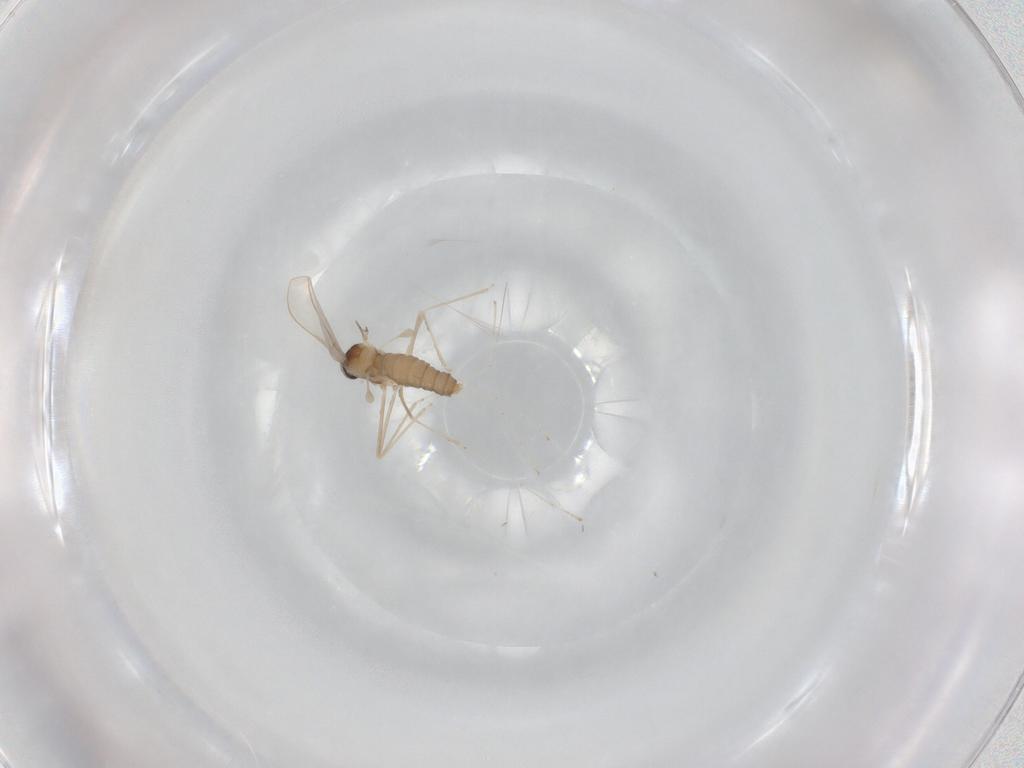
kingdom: Animalia
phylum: Arthropoda
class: Insecta
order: Diptera
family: Cecidomyiidae
